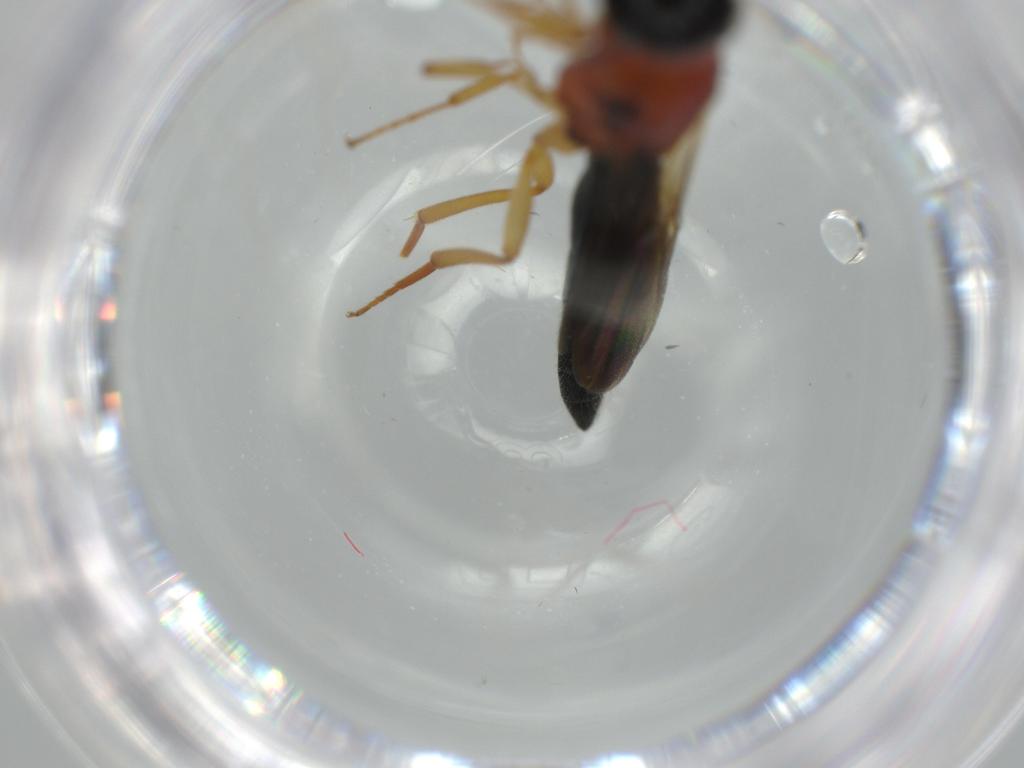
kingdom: Animalia
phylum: Arthropoda
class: Insecta
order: Hymenoptera
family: Scelionidae
